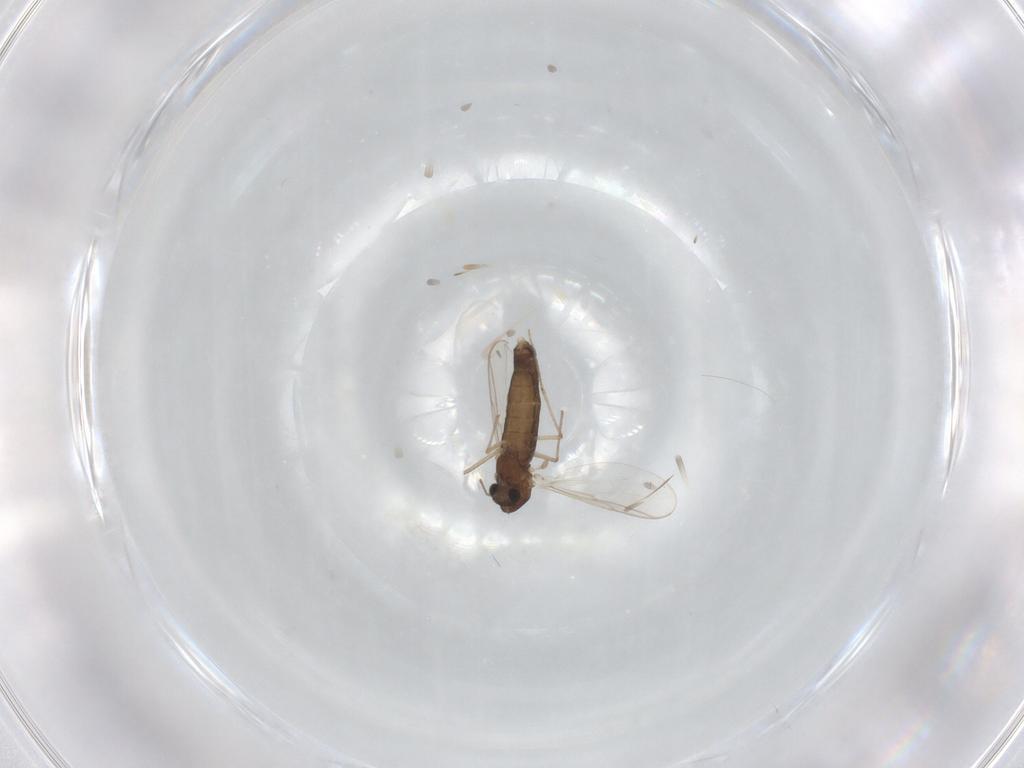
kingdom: Animalia
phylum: Arthropoda
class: Insecta
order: Diptera
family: Chironomidae
